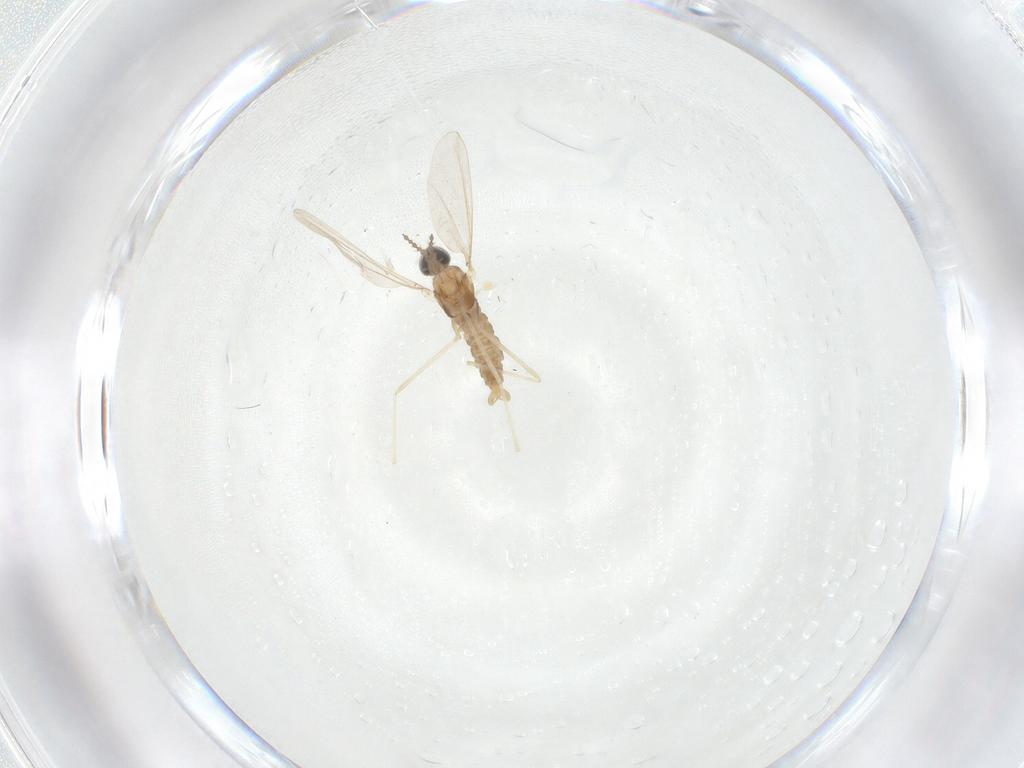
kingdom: Animalia
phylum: Arthropoda
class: Insecta
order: Diptera
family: Cecidomyiidae
